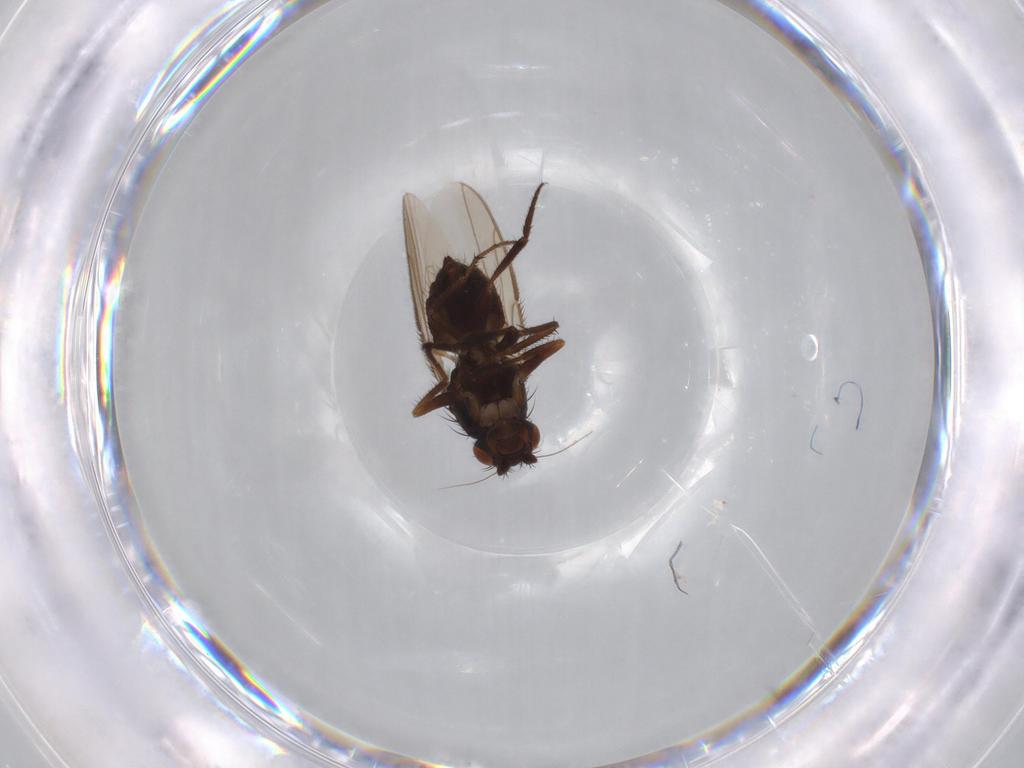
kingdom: Animalia
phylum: Arthropoda
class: Insecta
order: Diptera
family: Sphaeroceridae
